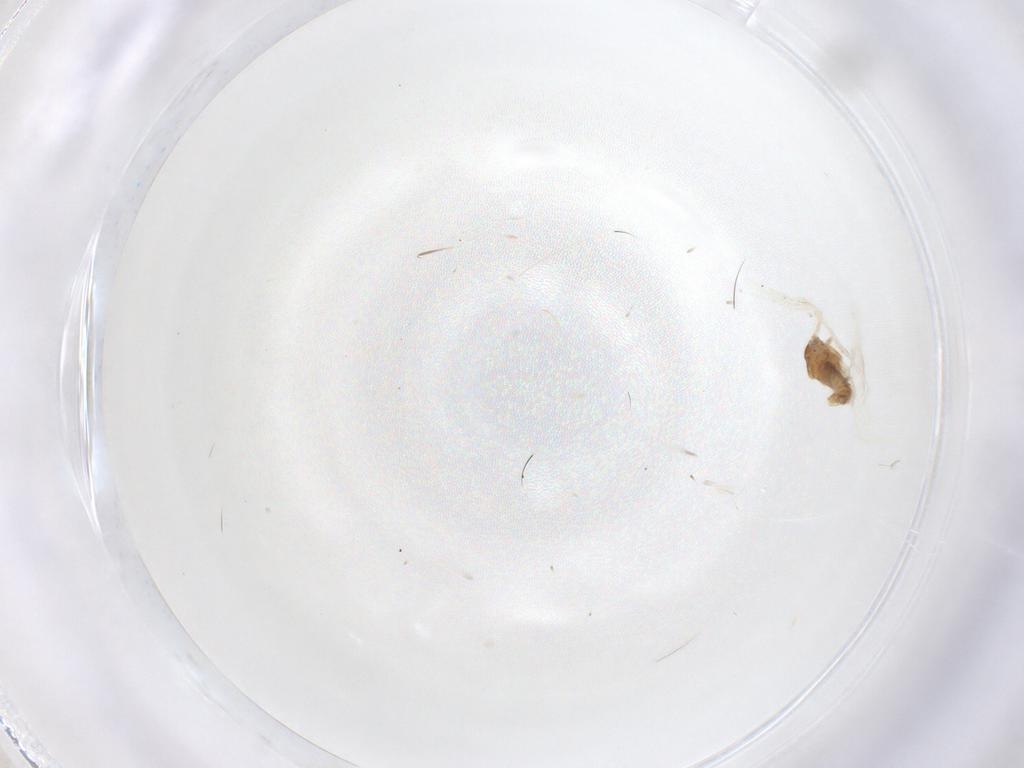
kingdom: Animalia
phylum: Arthropoda
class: Insecta
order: Diptera
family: Cecidomyiidae
